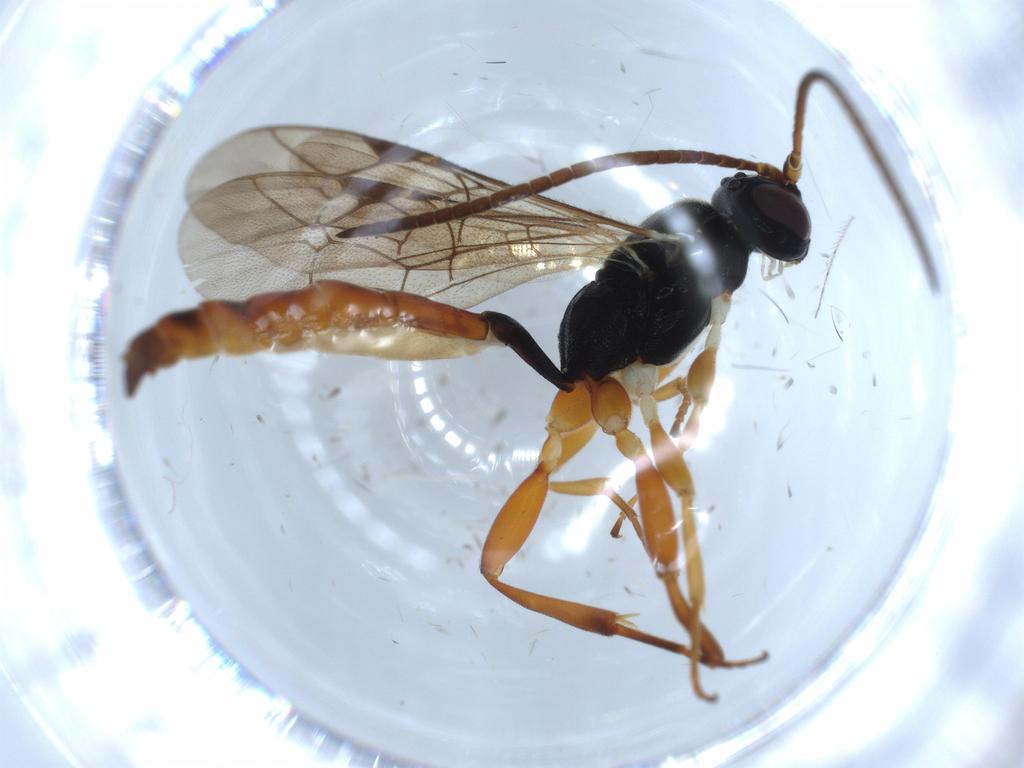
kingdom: Animalia
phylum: Arthropoda
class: Insecta
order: Hymenoptera
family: Ichneumonidae
